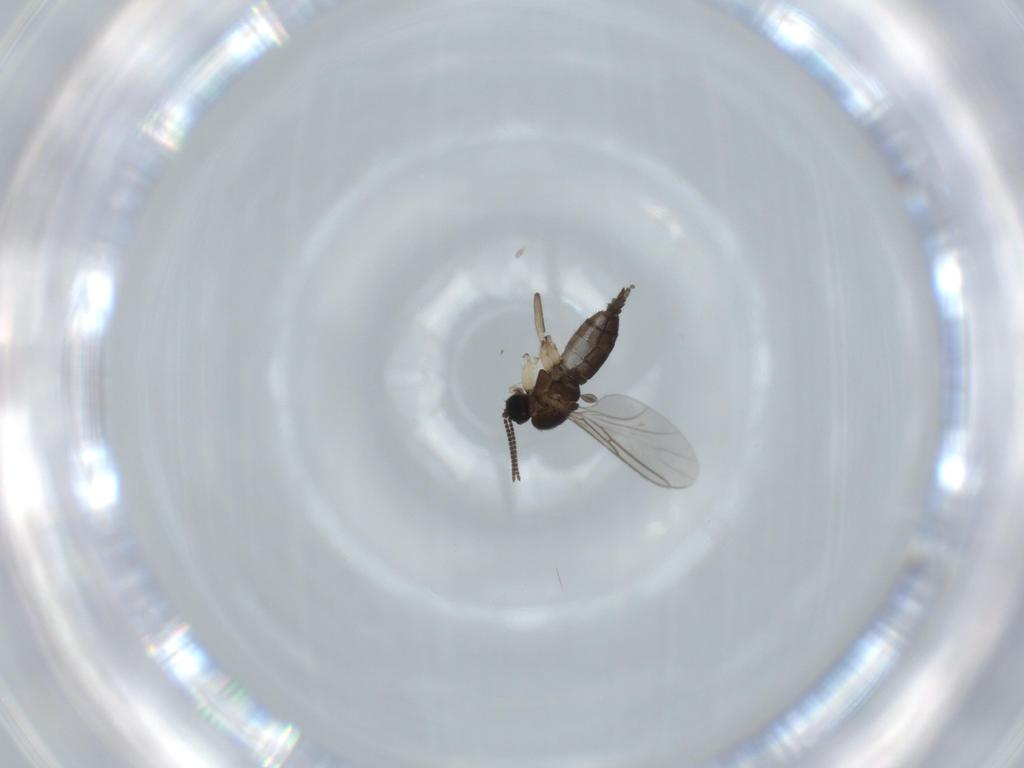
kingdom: Animalia
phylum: Arthropoda
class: Insecta
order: Diptera
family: Sciaridae
